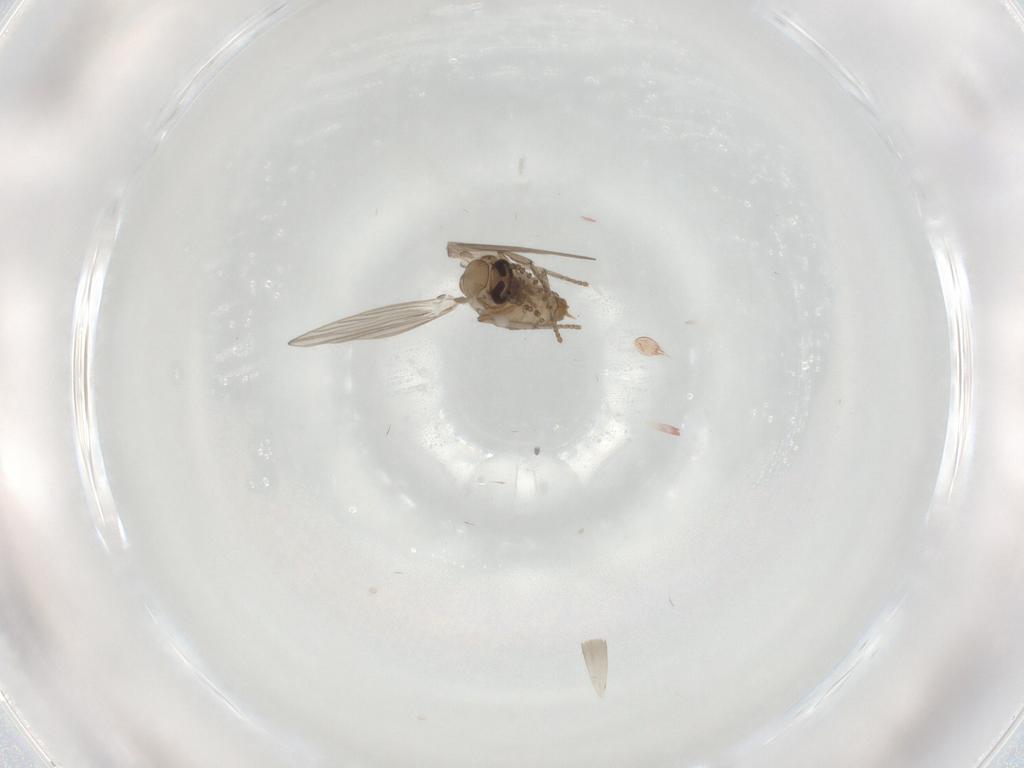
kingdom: Animalia
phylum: Arthropoda
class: Insecta
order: Diptera
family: Psychodidae
